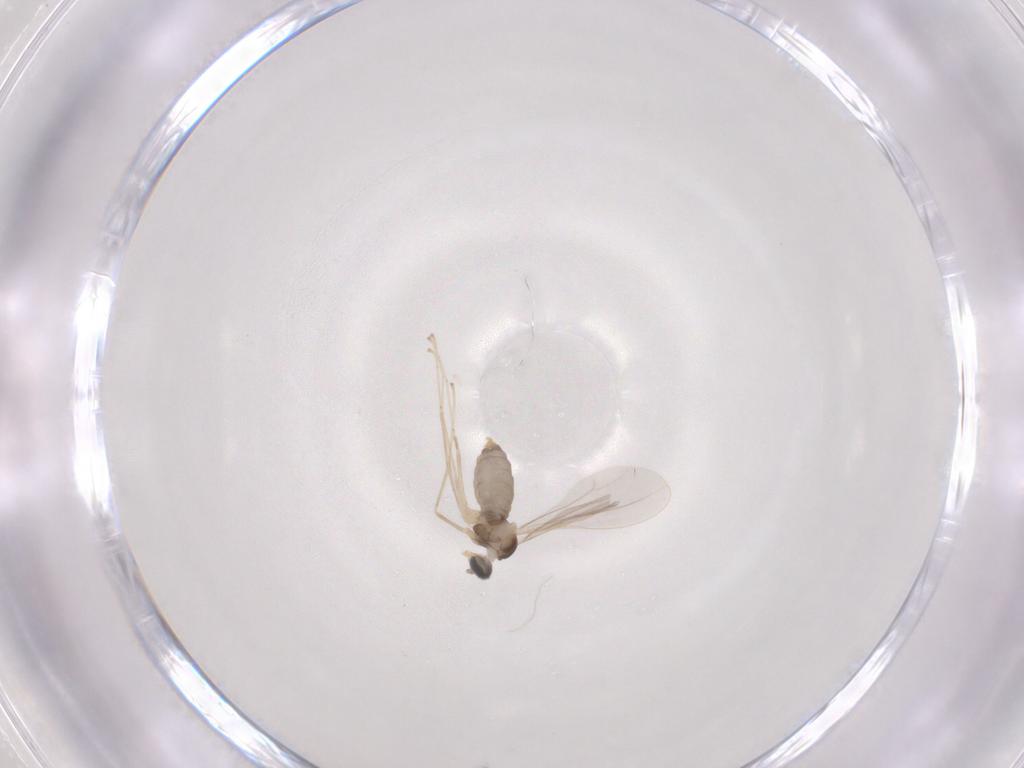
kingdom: Animalia
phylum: Arthropoda
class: Insecta
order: Diptera
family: Cecidomyiidae
